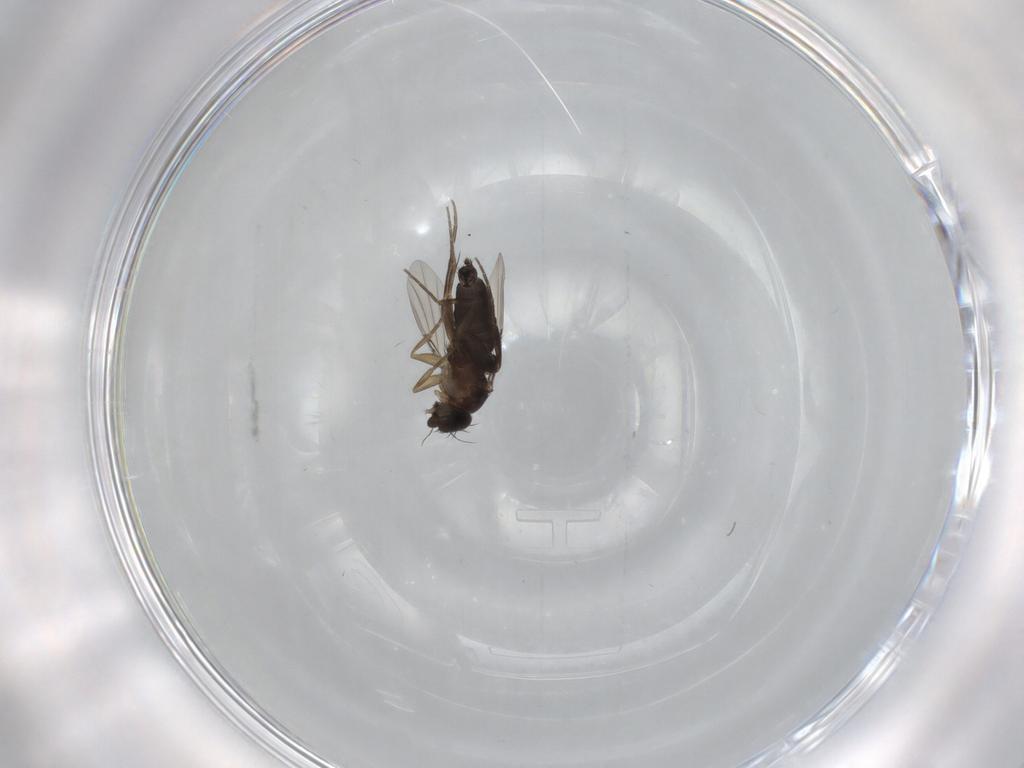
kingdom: Animalia
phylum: Arthropoda
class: Insecta
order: Diptera
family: Phoridae
